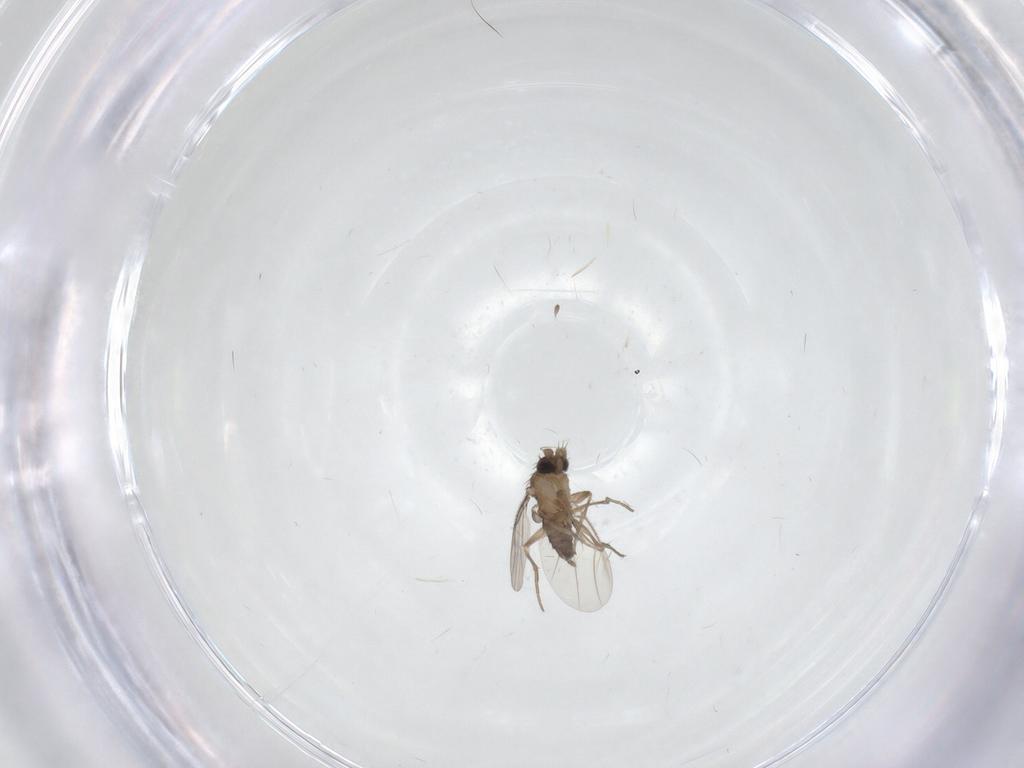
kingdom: Animalia
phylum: Arthropoda
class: Insecta
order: Diptera
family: Phoridae
